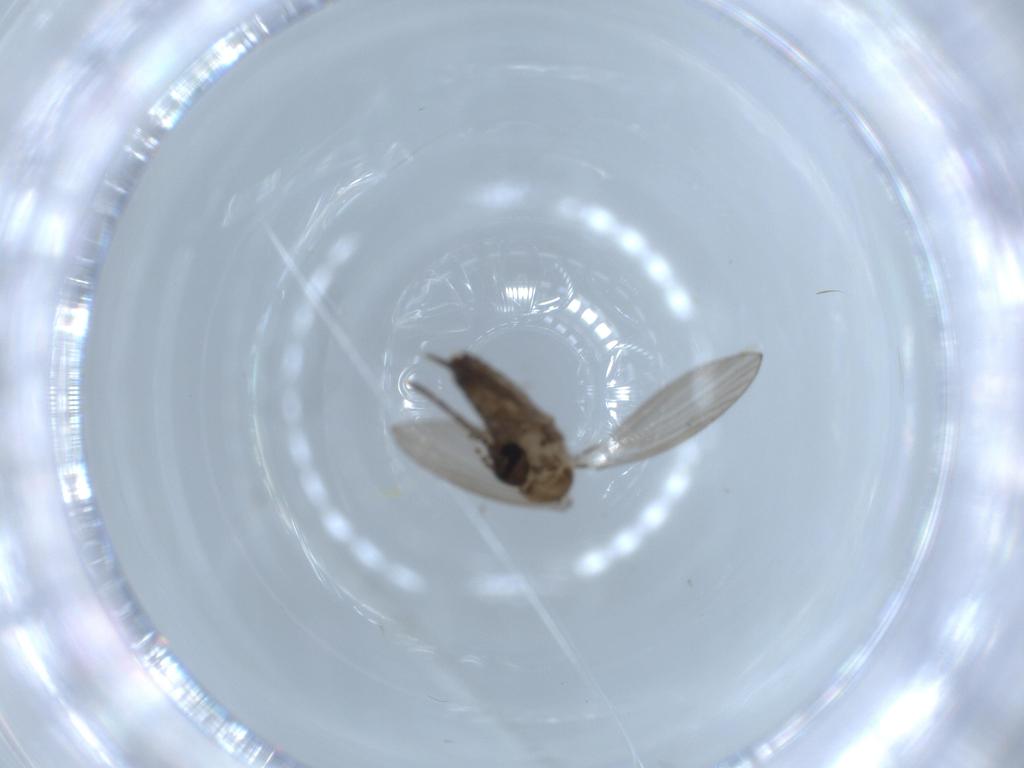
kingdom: Animalia
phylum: Arthropoda
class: Insecta
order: Diptera
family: Psychodidae
